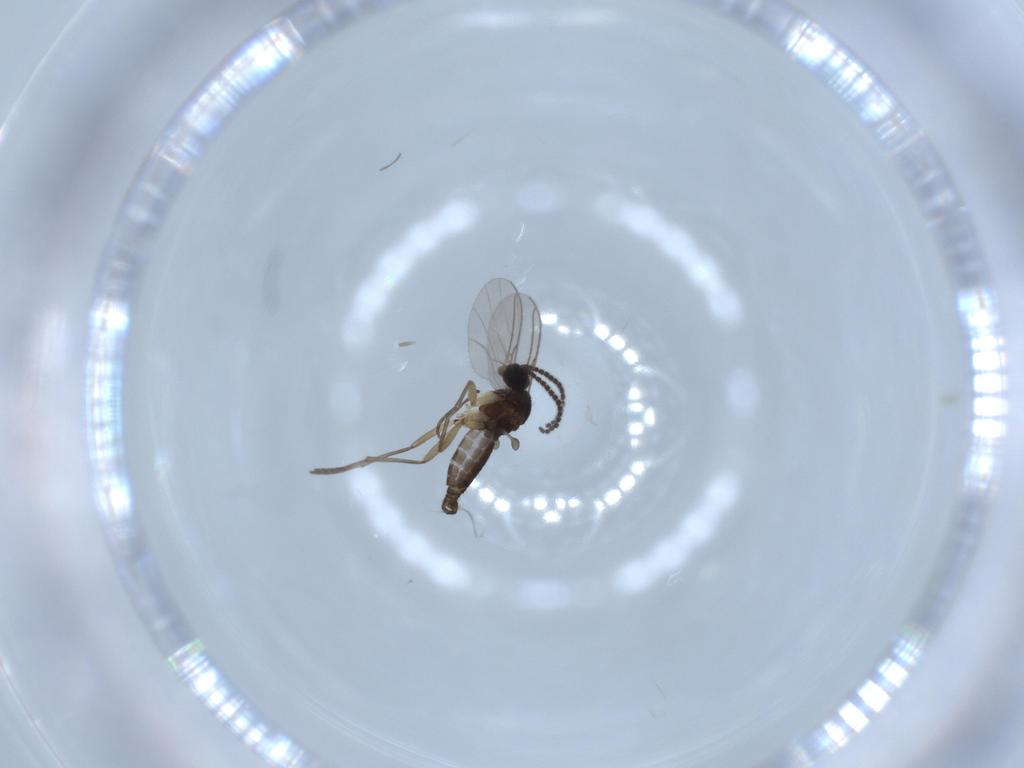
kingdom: Animalia
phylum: Arthropoda
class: Insecta
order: Diptera
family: Sciaridae
